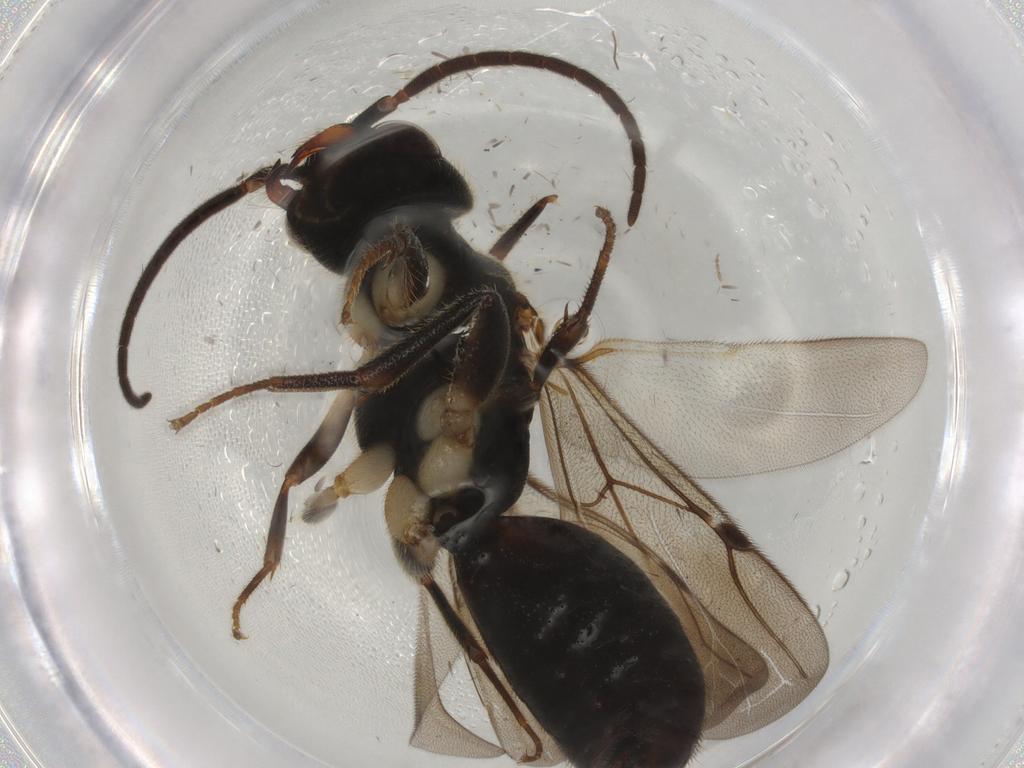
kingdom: Animalia
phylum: Arthropoda
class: Insecta
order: Hymenoptera
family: Bethylidae
